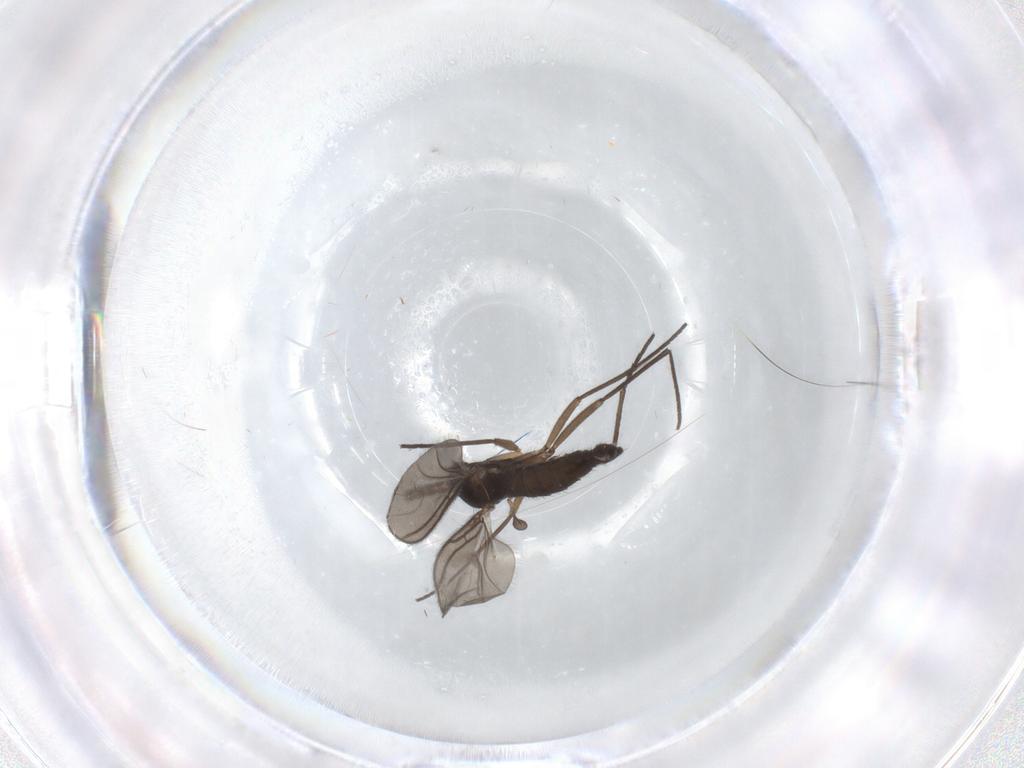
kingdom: Animalia
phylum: Arthropoda
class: Insecta
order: Diptera
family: Sciaridae
